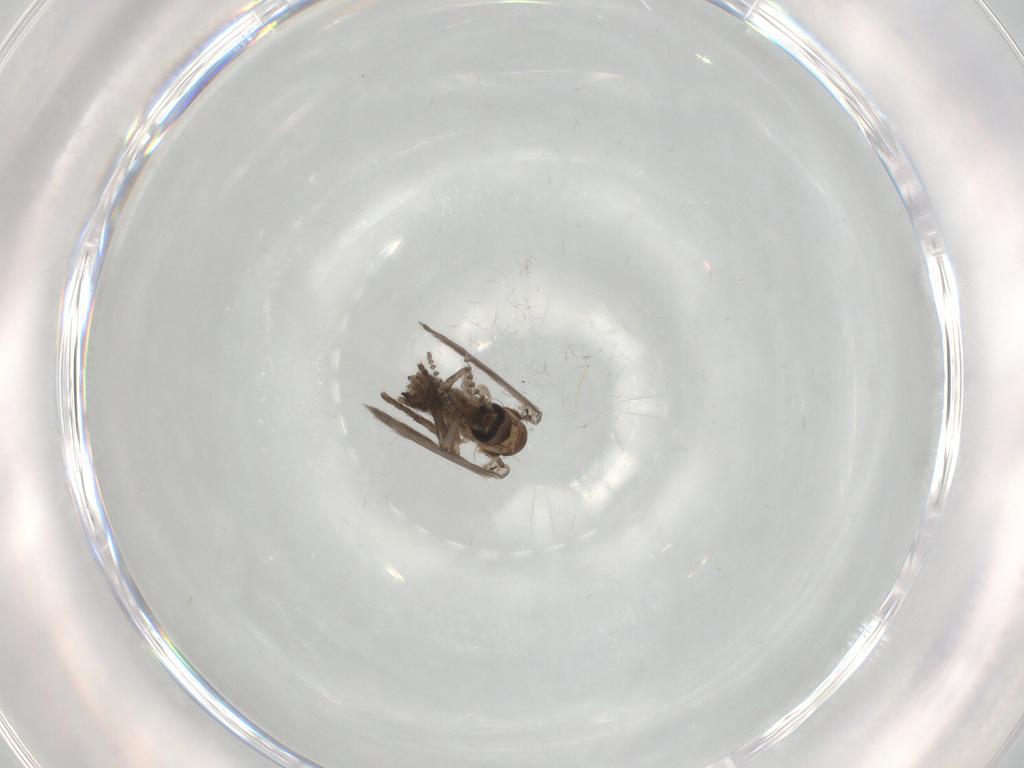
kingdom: Animalia
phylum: Arthropoda
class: Insecta
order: Diptera
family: Psychodidae
